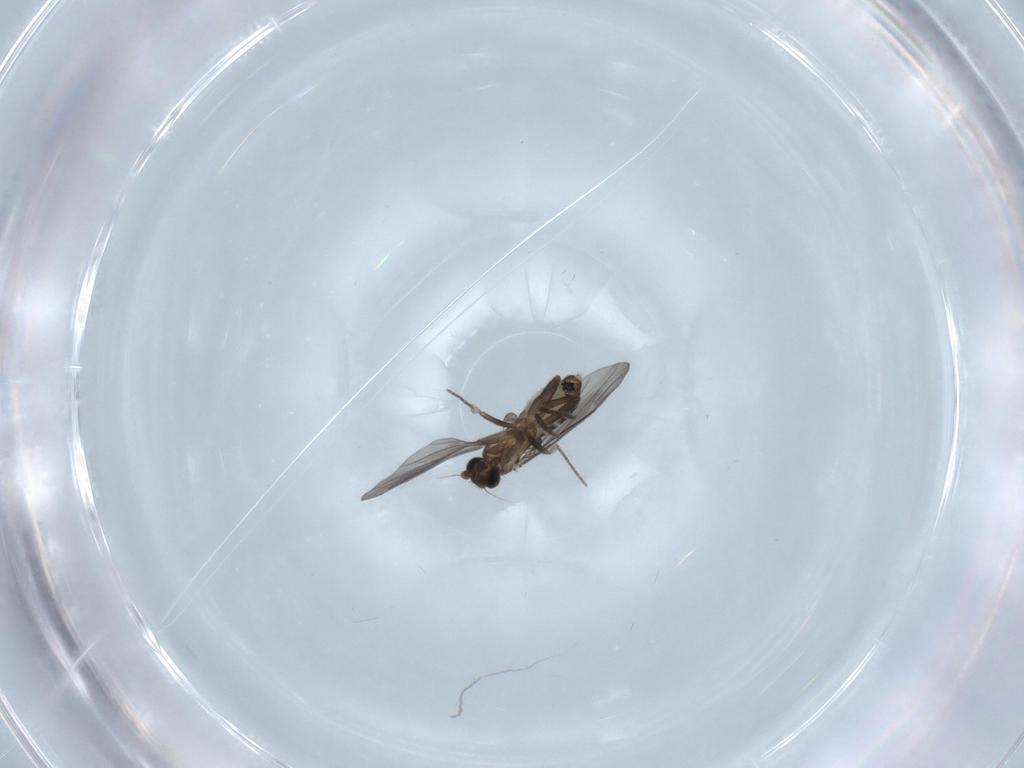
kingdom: Animalia
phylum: Arthropoda
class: Insecta
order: Diptera
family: Phoridae
